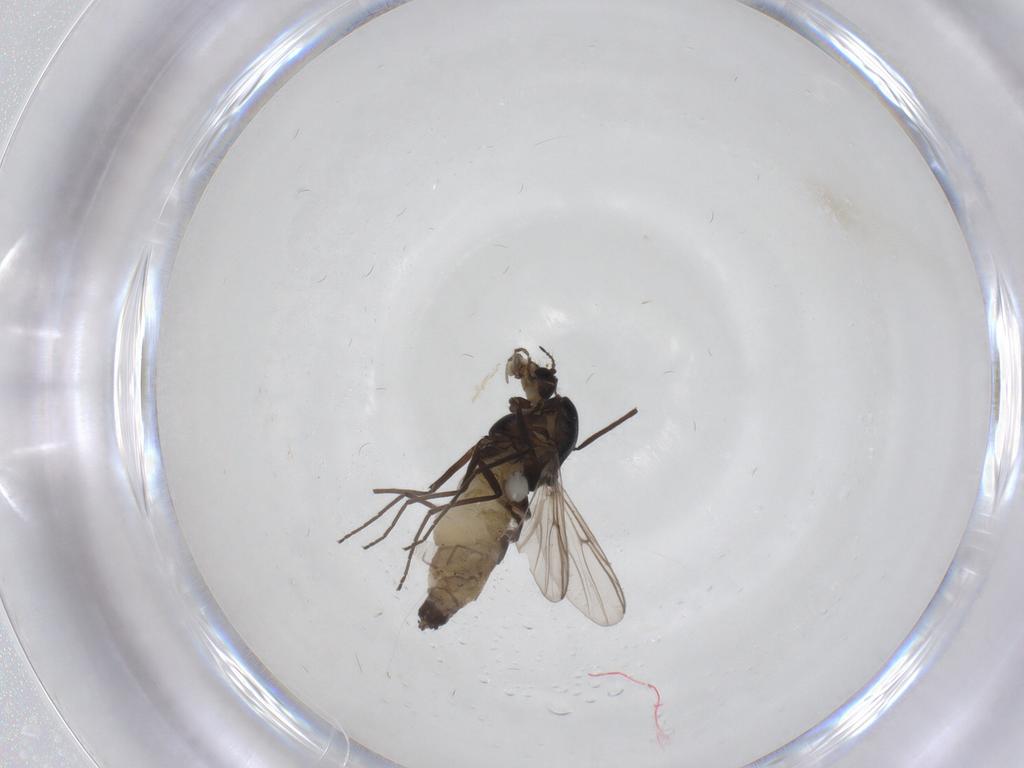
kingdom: Animalia
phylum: Arthropoda
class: Insecta
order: Diptera
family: Chironomidae
